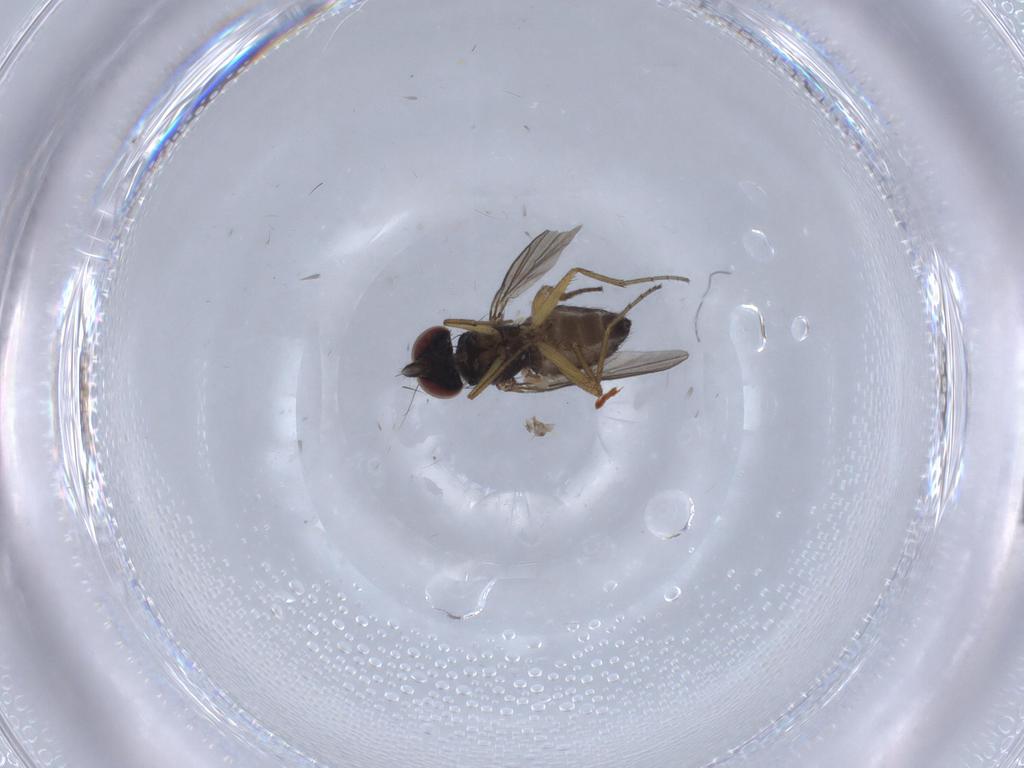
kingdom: Animalia
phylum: Arthropoda
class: Insecta
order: Diptera
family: Dolichopodidae
